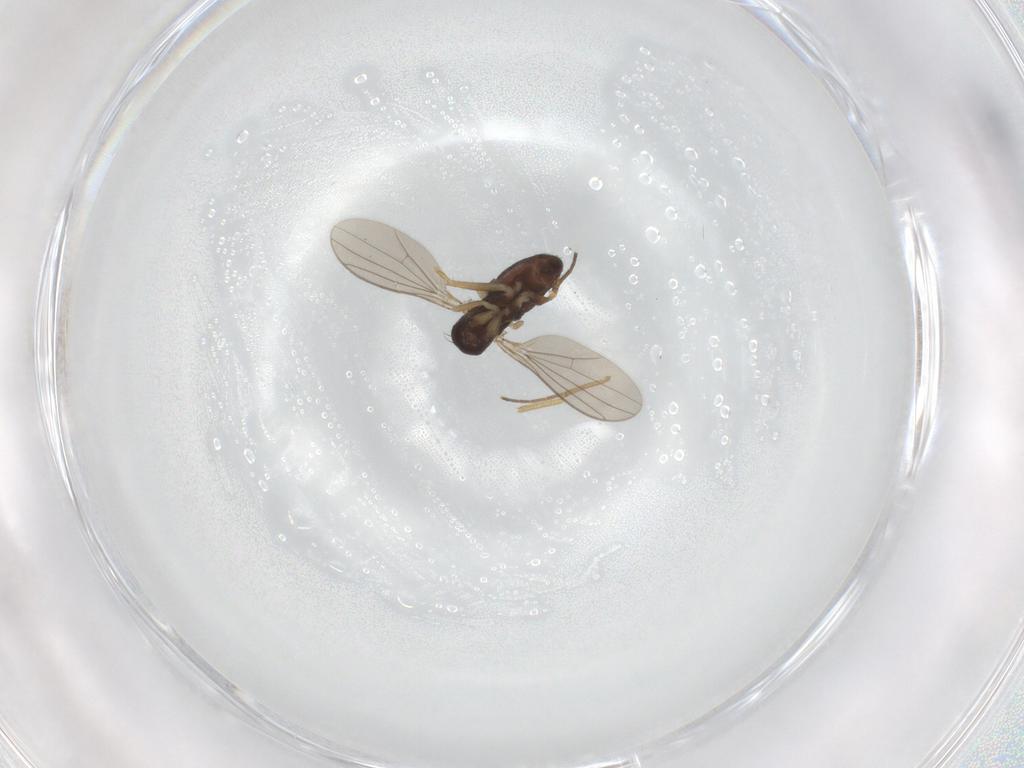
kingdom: Animalia
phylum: Arthropoda
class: Insecta
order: Diptera
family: Dolichopodidae
